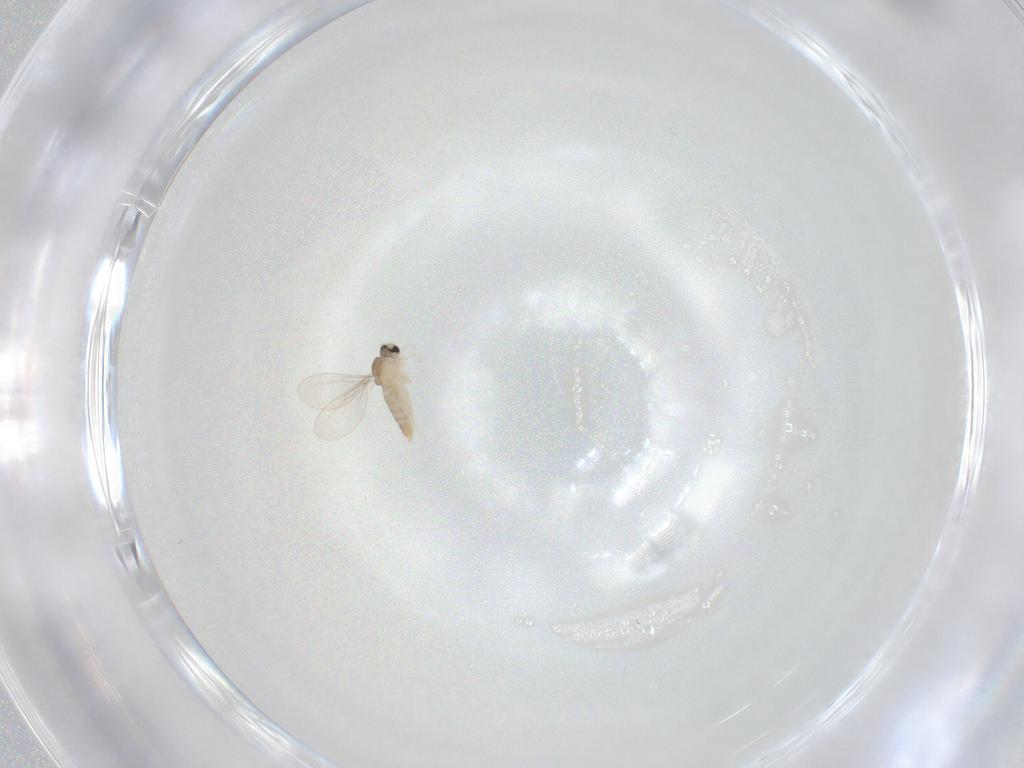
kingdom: Animalia
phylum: Arthropoda
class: Insecta
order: Diptera
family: Cecidomyiidae
